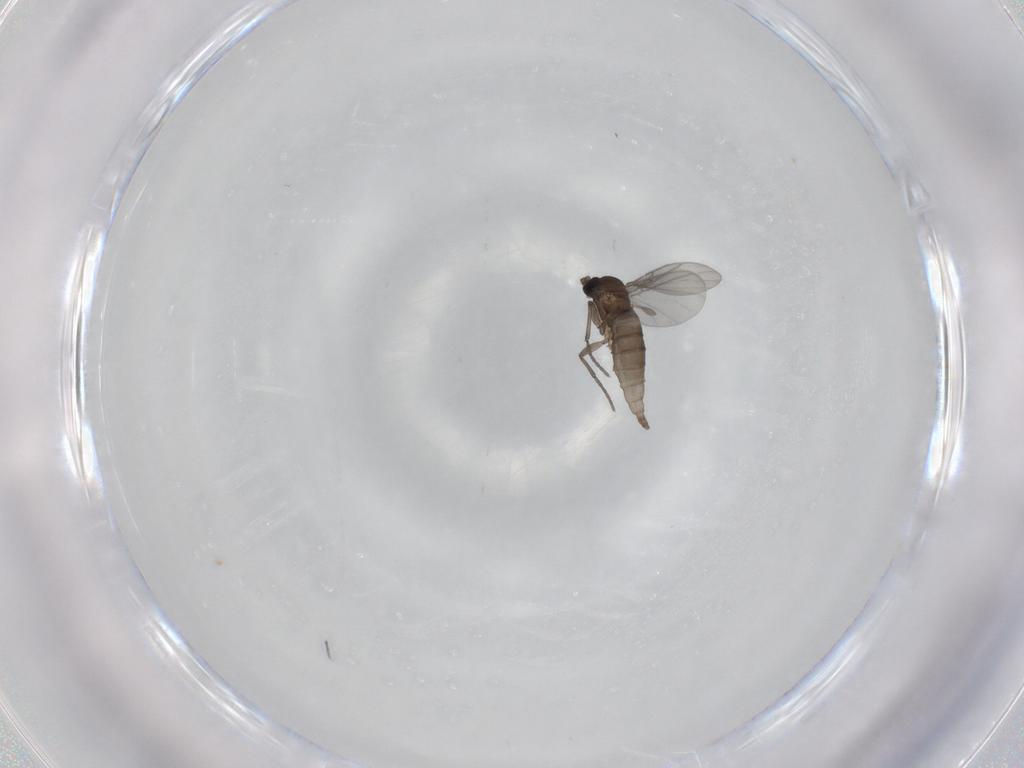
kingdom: Animalia
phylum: Arthropoda
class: Insecta
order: Diptera
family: Sciaridae
